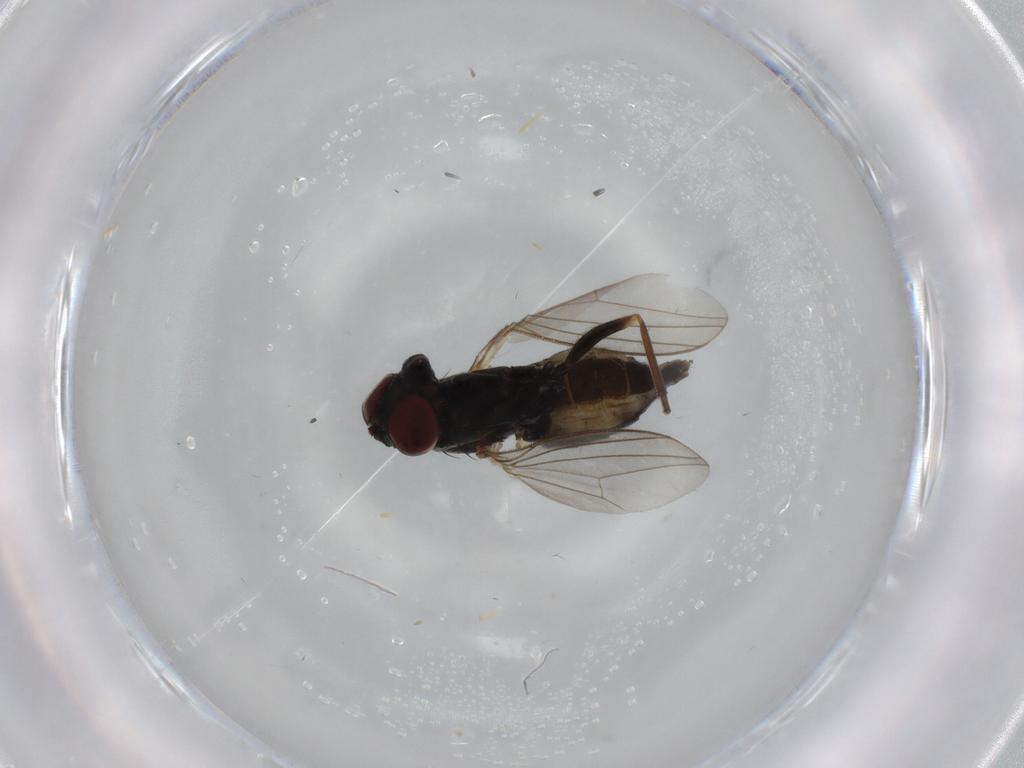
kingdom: Animalia
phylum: Arthropoda
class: Insecta
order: Diptera
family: Dolichopodidae
